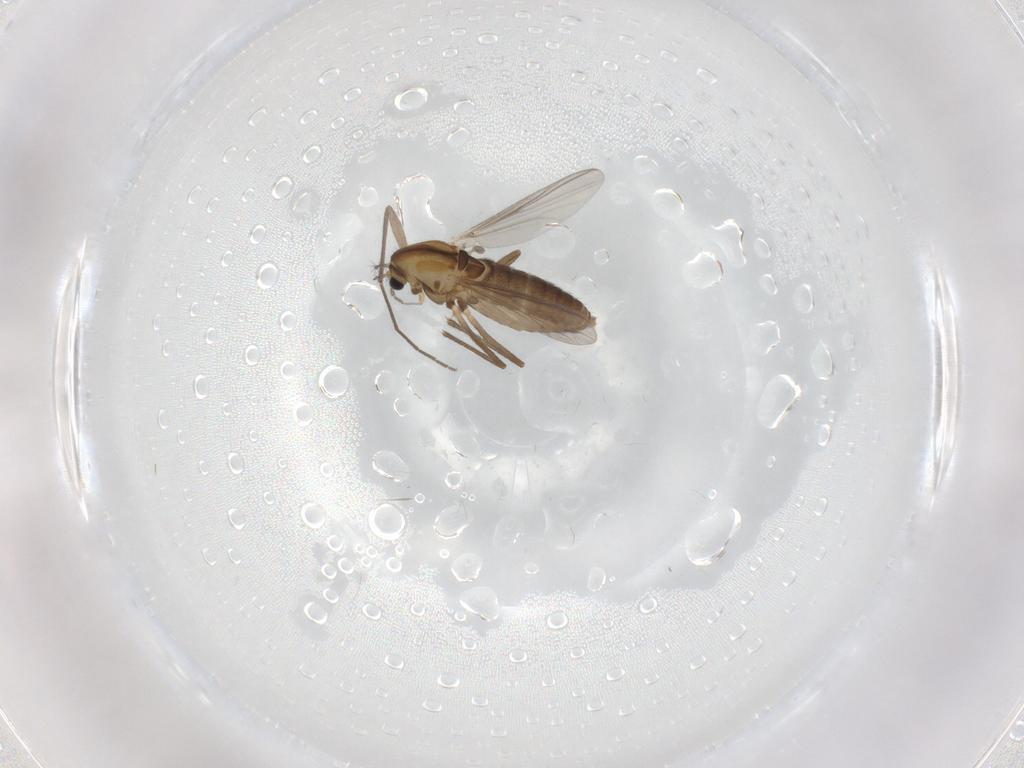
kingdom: Animalia
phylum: Arthropoda
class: Insecta
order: Diptera
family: Chironomidae
